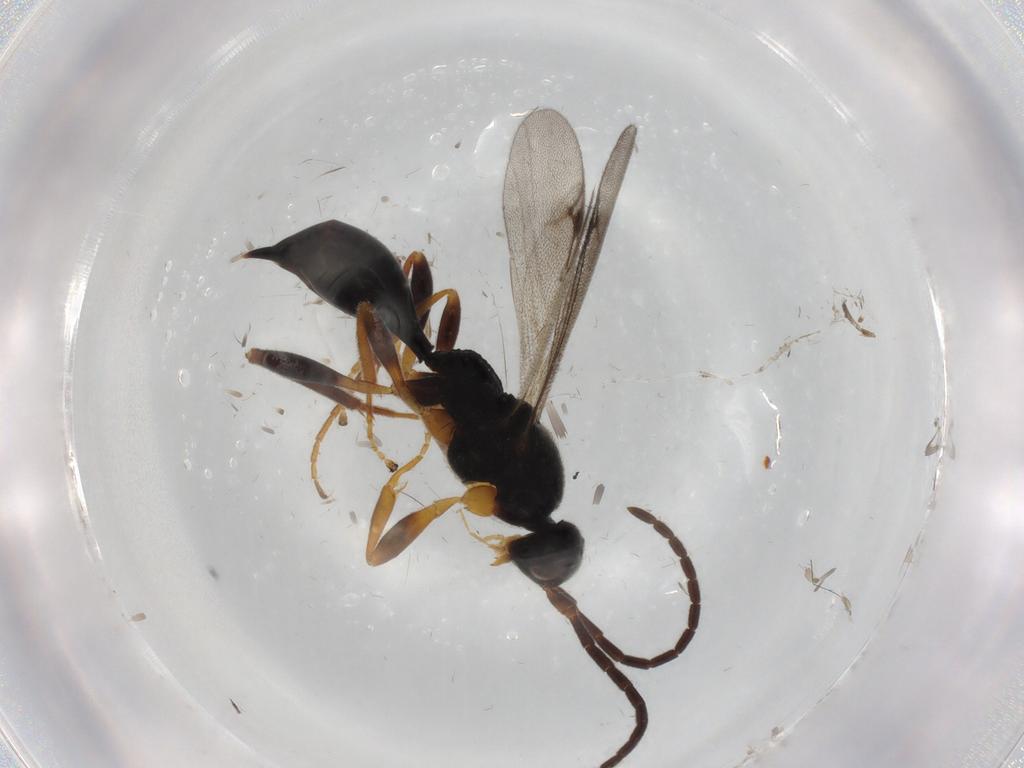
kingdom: Animalia
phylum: Arthropoda
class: Insecta
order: Hymenoptera
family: Proctotrupidae
